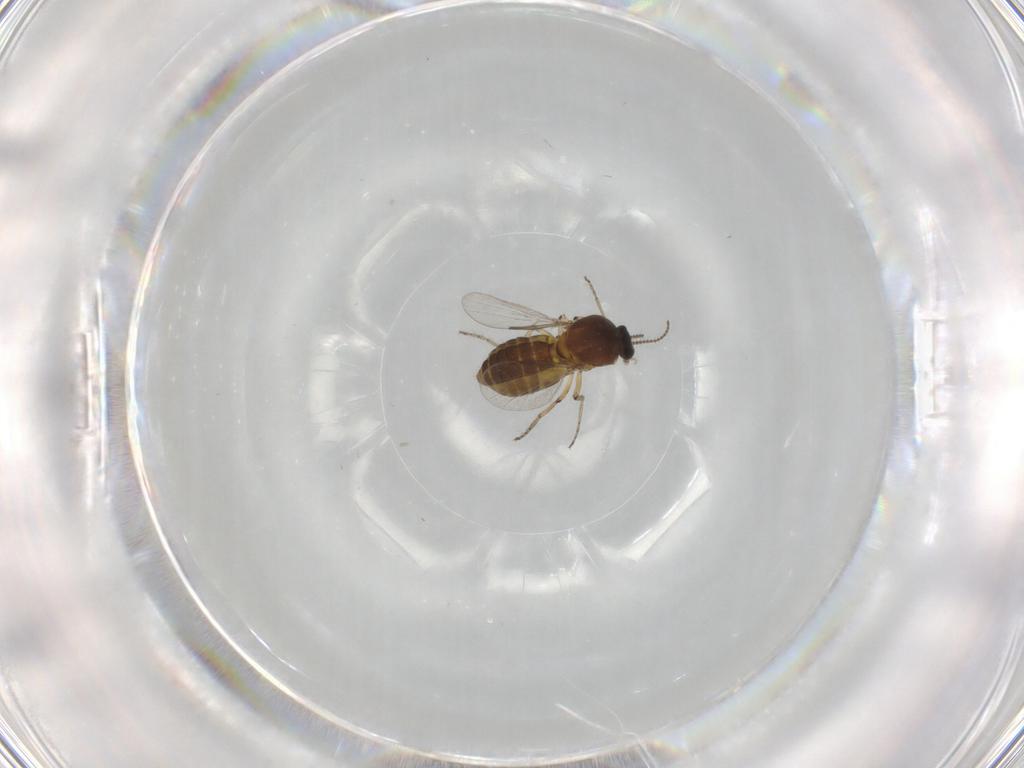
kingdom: Animalia
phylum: Arthropoda
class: Insecta
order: Diptera
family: Ceratopogonidae
